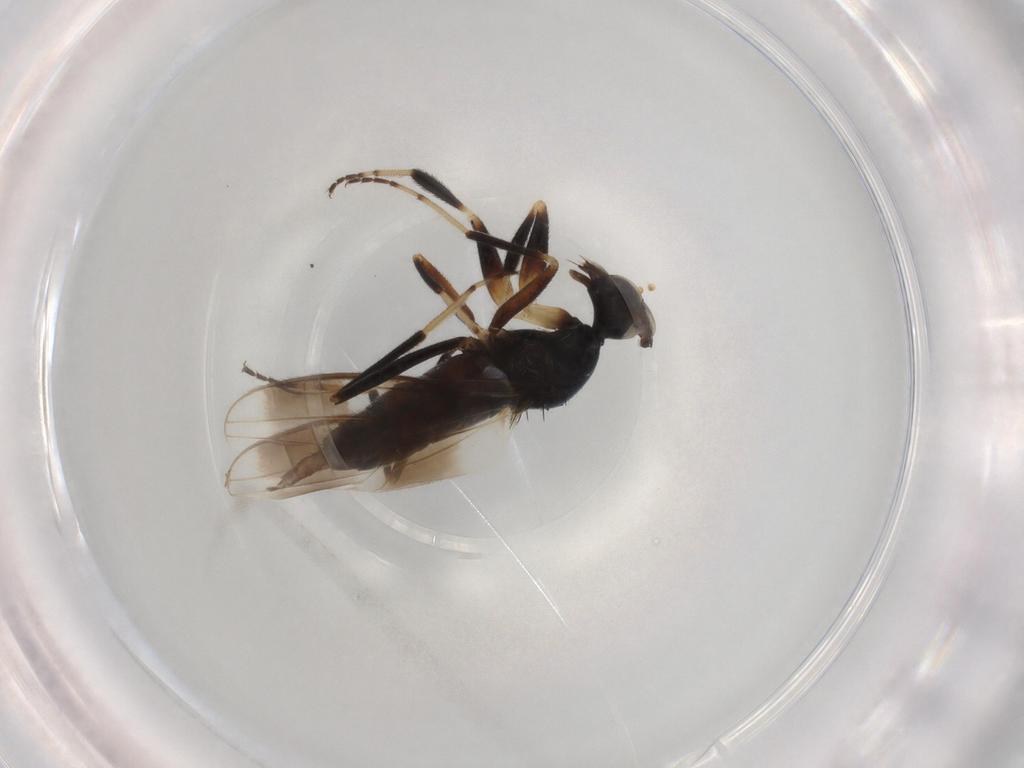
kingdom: Animalia
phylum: Arthropoda
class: Insecta
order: Diptera
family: Hybotidae
